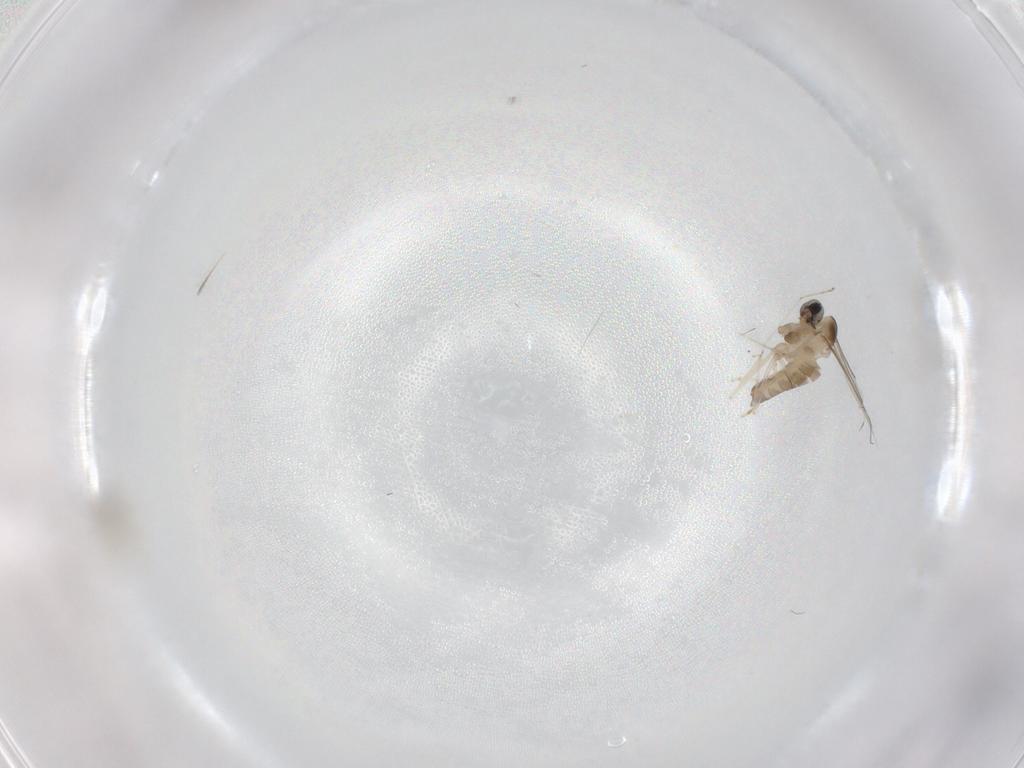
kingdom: Animalia
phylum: Arthropoda
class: Insecta
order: Diptera
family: Cecidomyiidae
